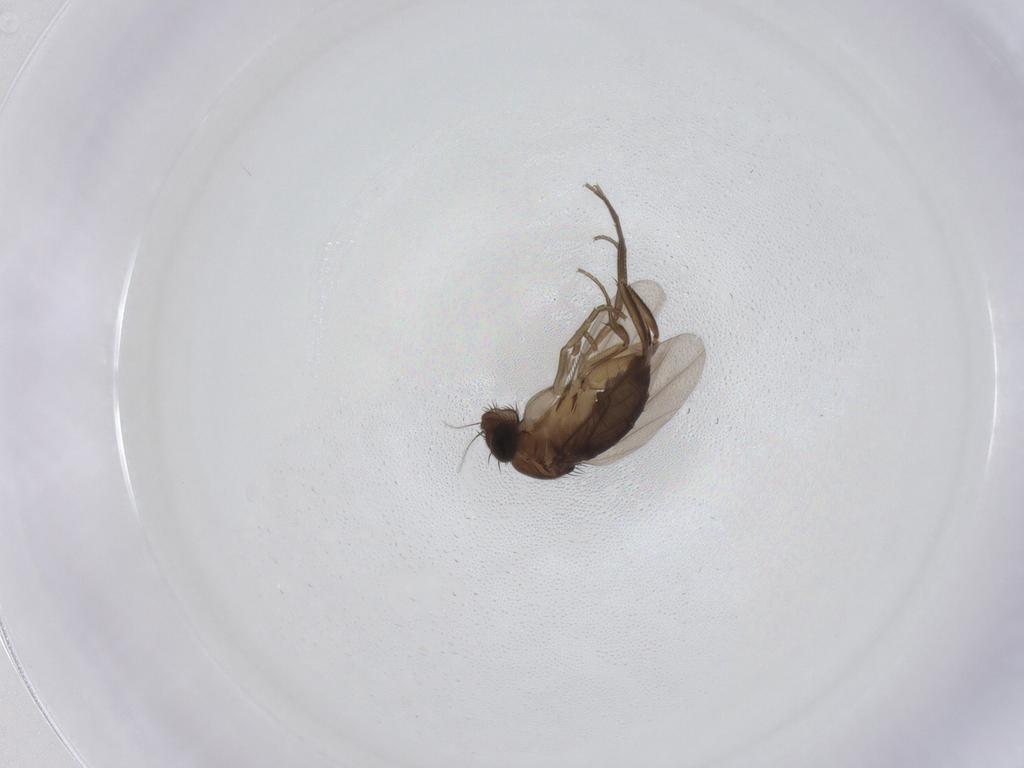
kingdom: Animalia
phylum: Arthropoda
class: Insecta
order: Diptera
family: Phoridae
